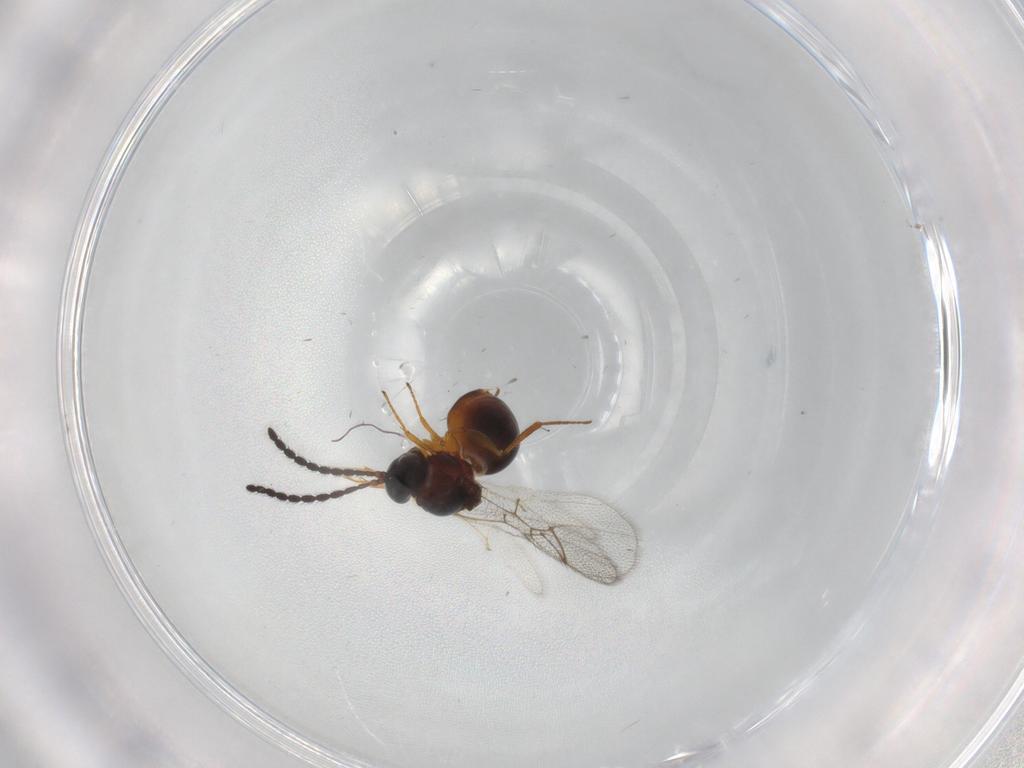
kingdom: Animalia
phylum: Arthropoda
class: Insecta
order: Hymenoptera
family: Figitidae
